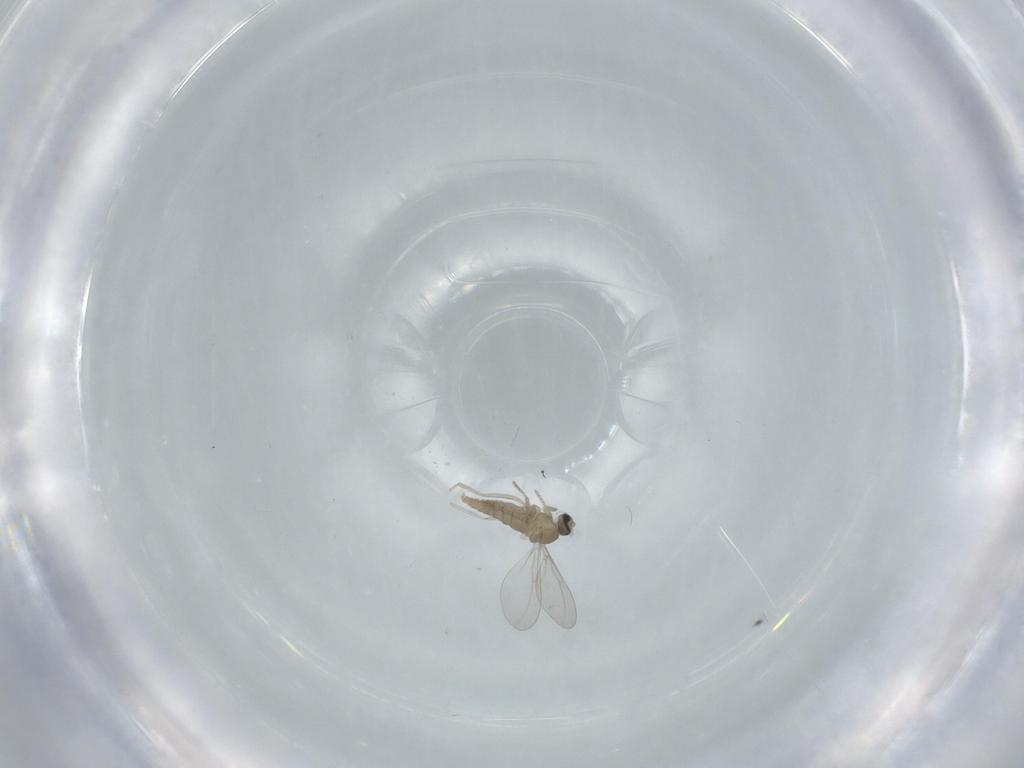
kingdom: Animalia
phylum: Arthropoda
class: Insecta
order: Diptera
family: Cecidomyiidae
